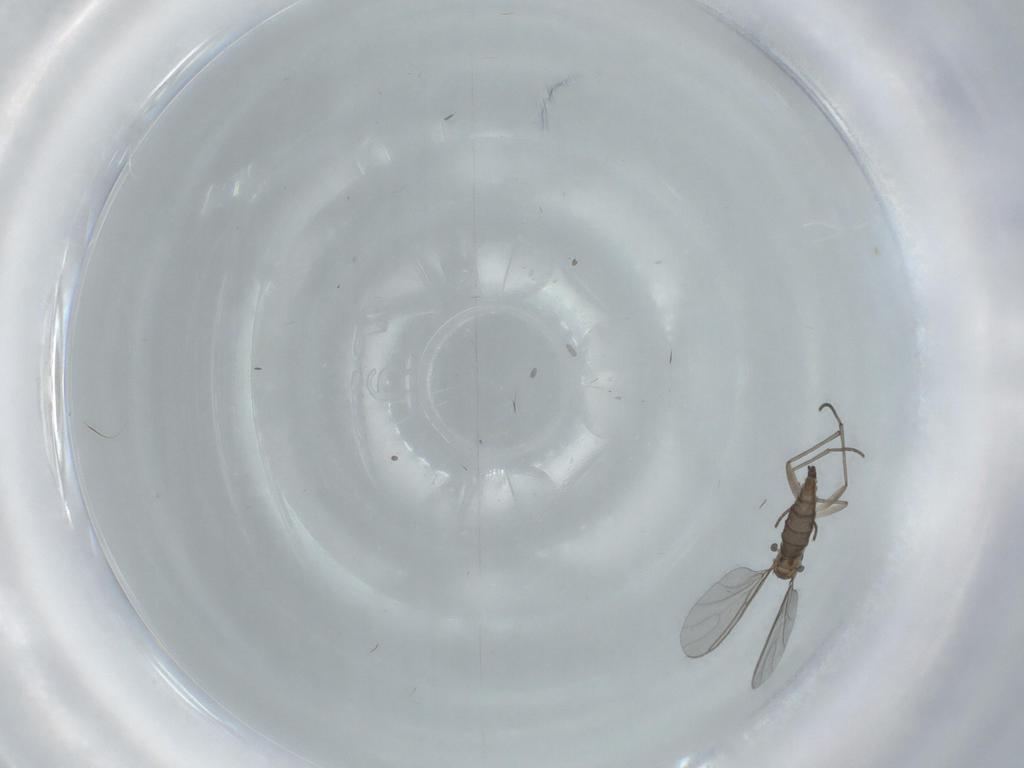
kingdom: Animalia
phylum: Arthropoda
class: Insecta
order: Diptera
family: Sciaridae
